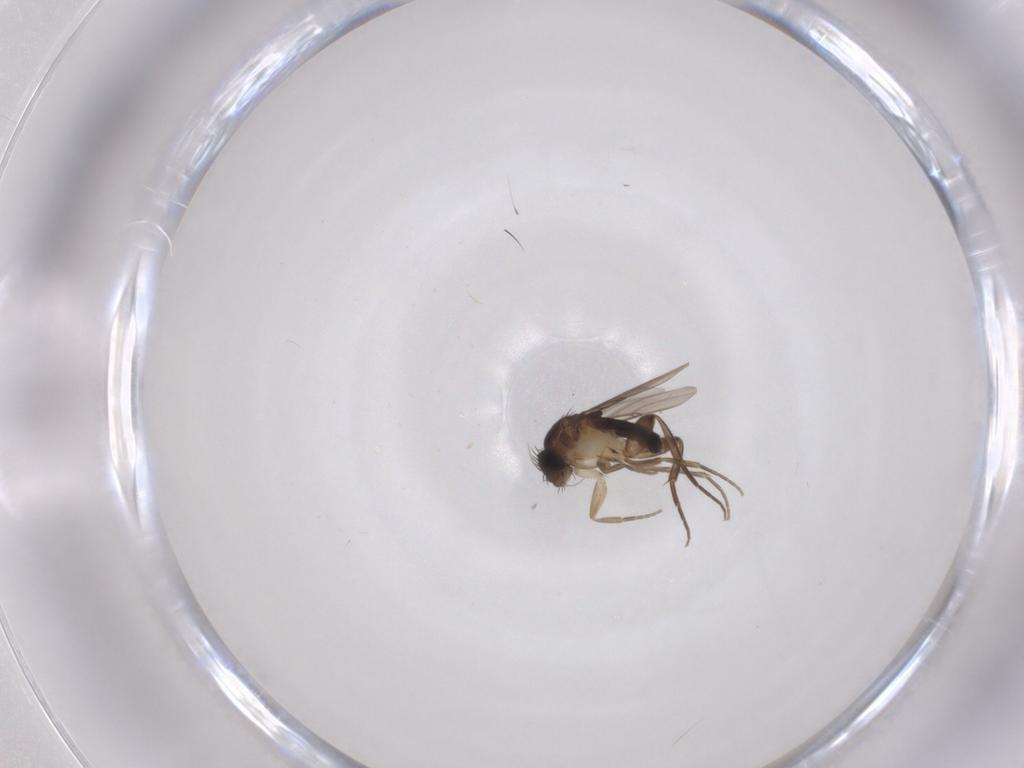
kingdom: Animalia
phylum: Arthropoda
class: Insecta
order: Diptera
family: Phoridae
